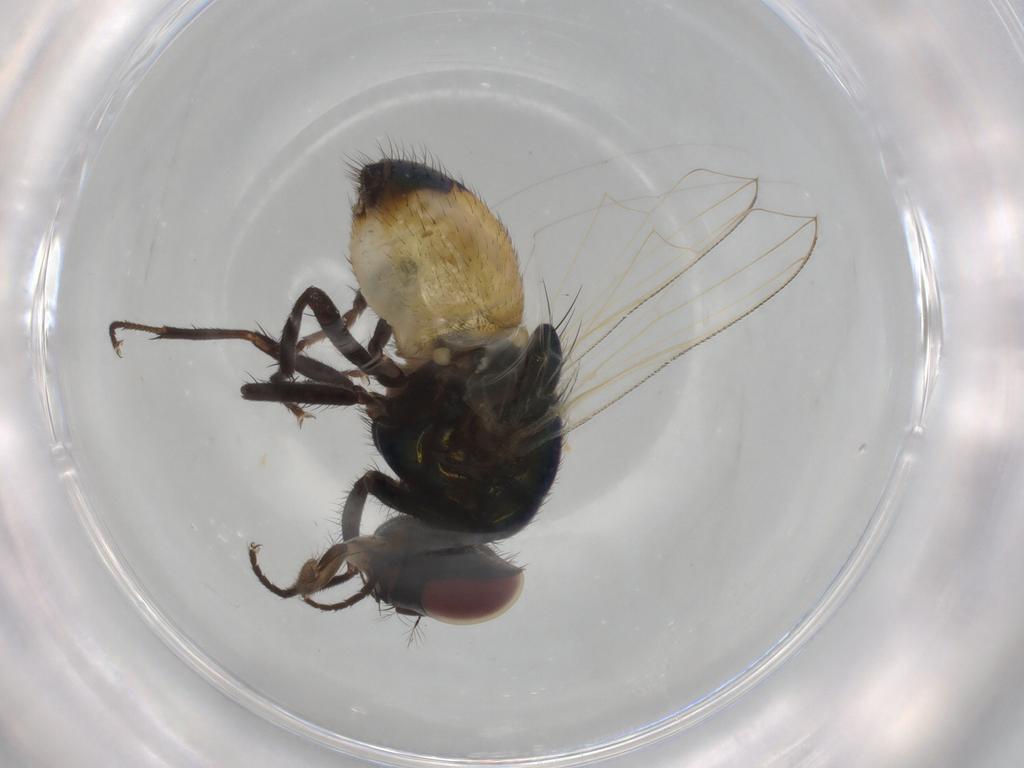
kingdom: Animalia
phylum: Arthropoda
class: Insecta
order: Diptera
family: Muscidae
